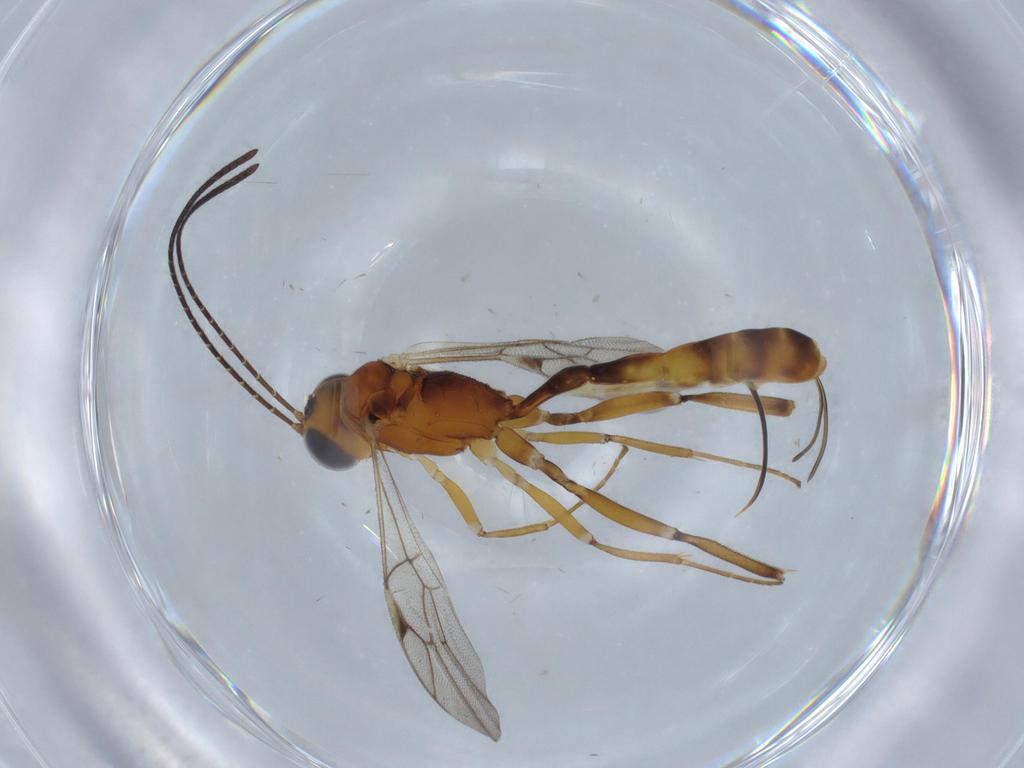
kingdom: Animalia
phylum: Arthropoda
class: Insecta
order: Hymenoptera
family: Eulophidae
